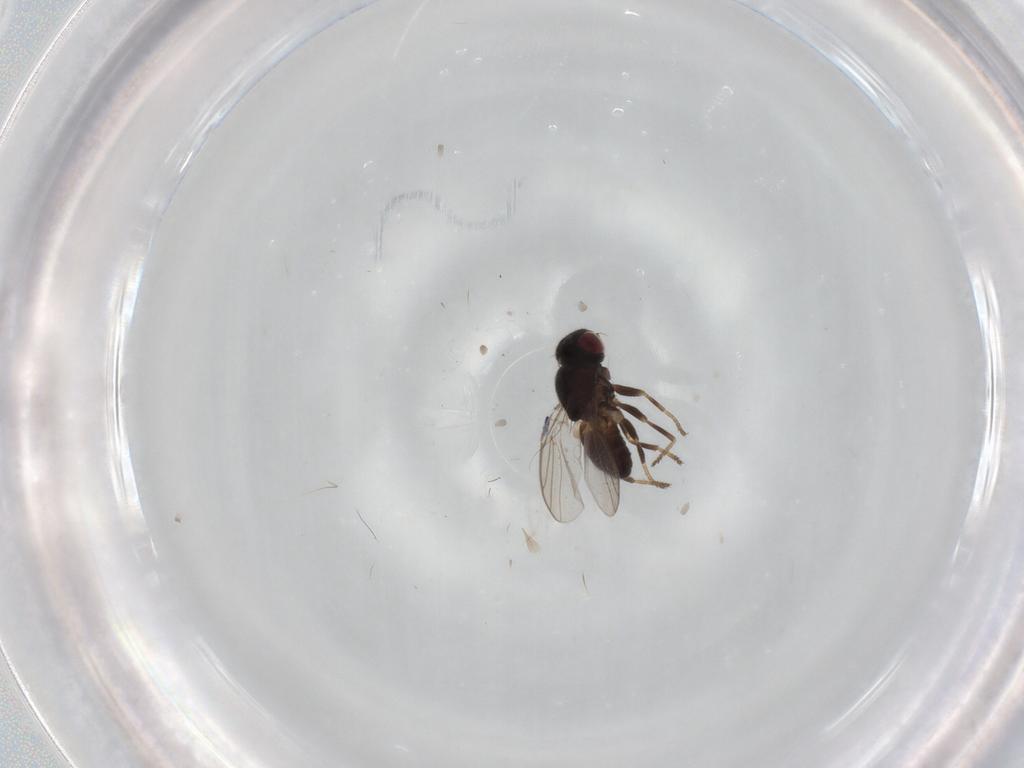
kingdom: Animalia
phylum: Arthropoda
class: Insecta
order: Diptera
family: Chloropidae
